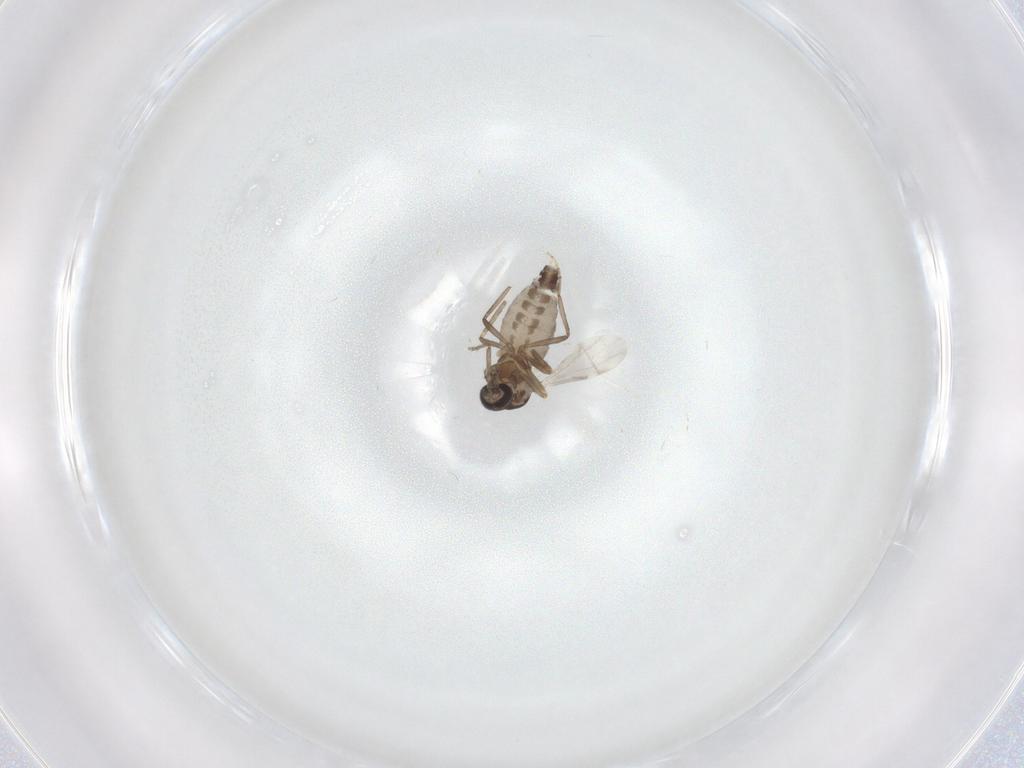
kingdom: Animalia
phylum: Arthropoda
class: Insecta
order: Diptera
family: Ceratopogonidae
